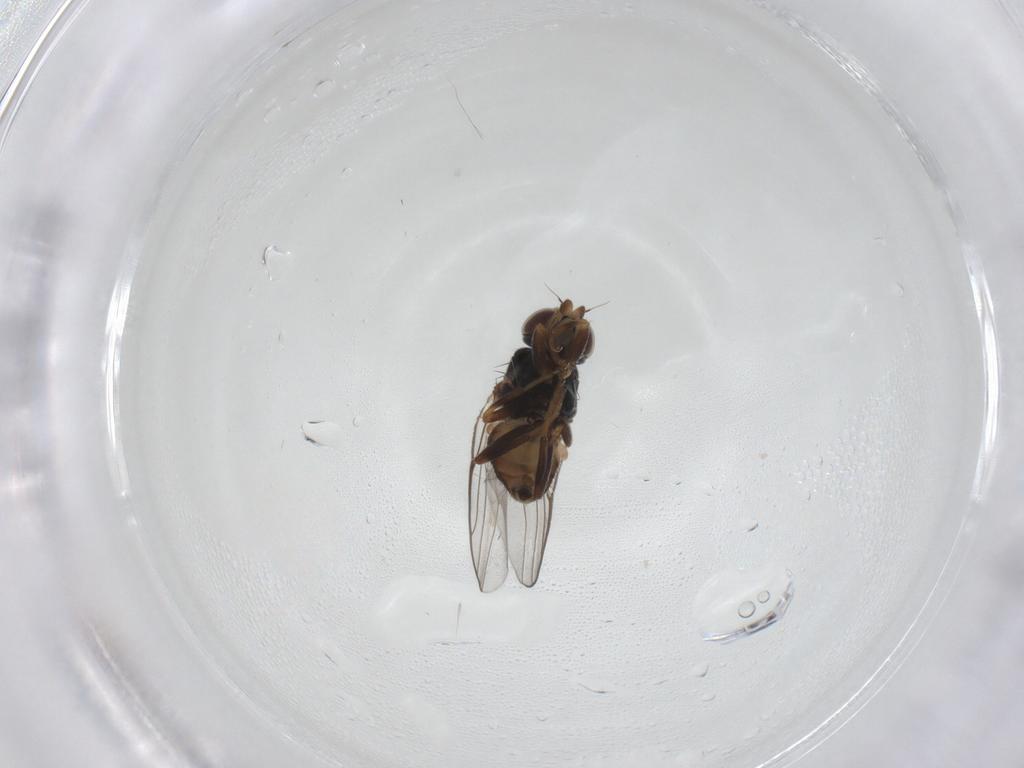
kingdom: Animalia
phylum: Arthropoda
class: Insecta
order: Diptera
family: Chloropidae
